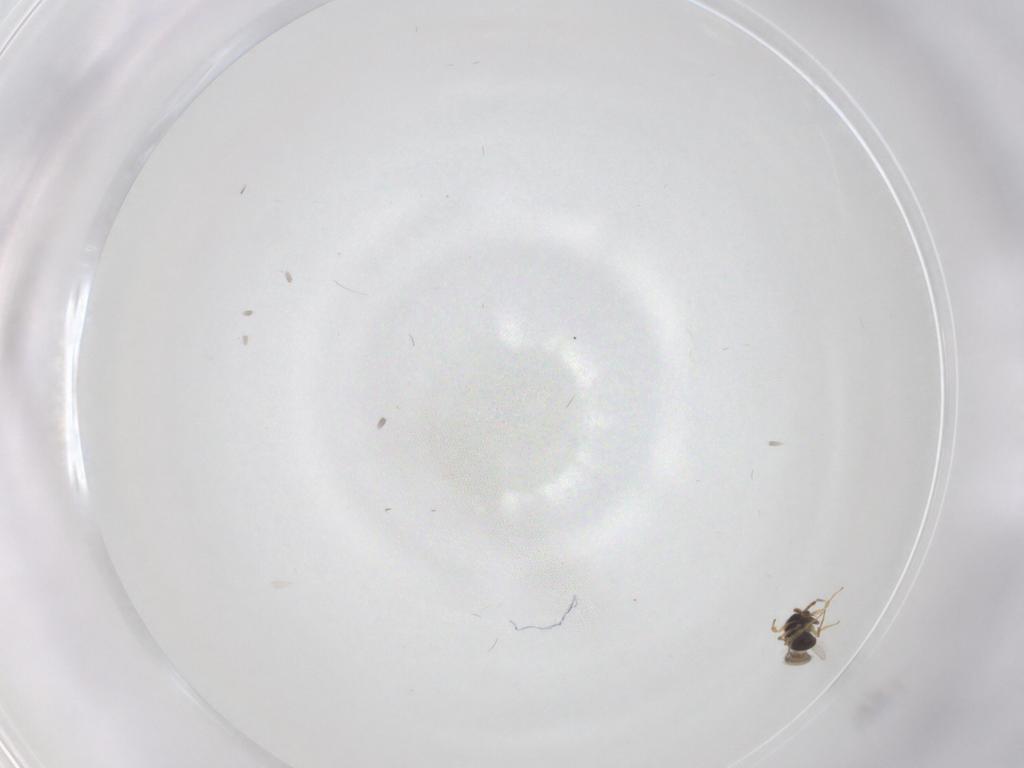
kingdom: Animalia
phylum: Arthropoda
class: Insecta
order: Hymenoptera
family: Scelionidae
